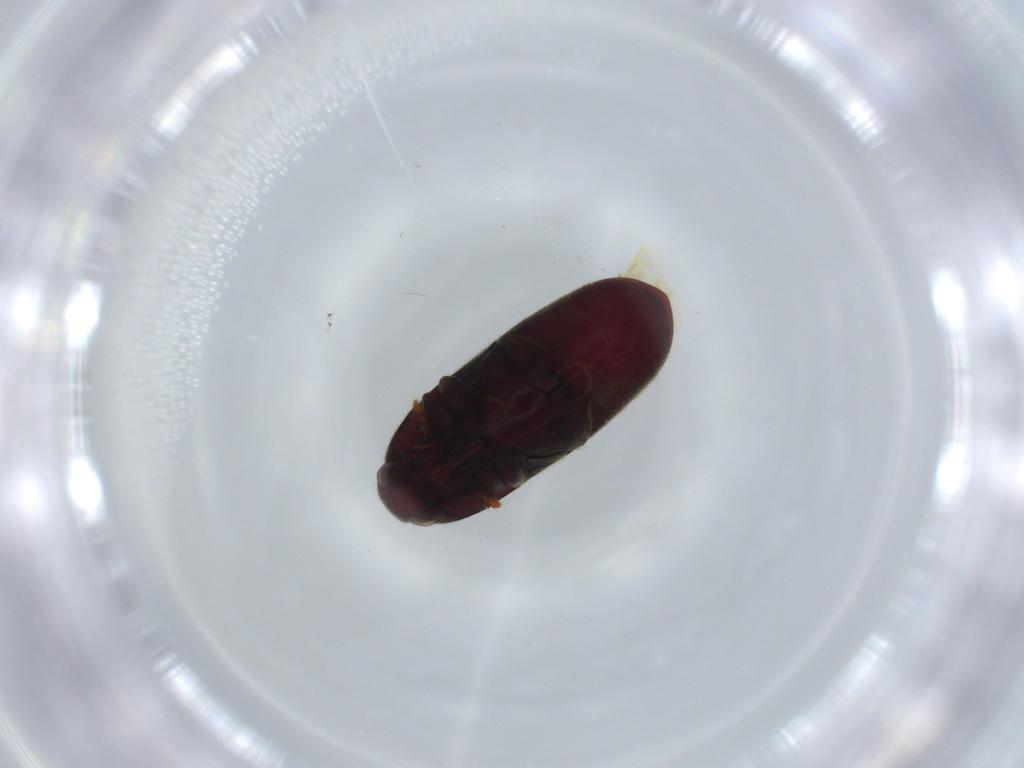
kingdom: Animalia
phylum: Arthropoda
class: Insecta
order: Coleoptera
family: Throscidae
